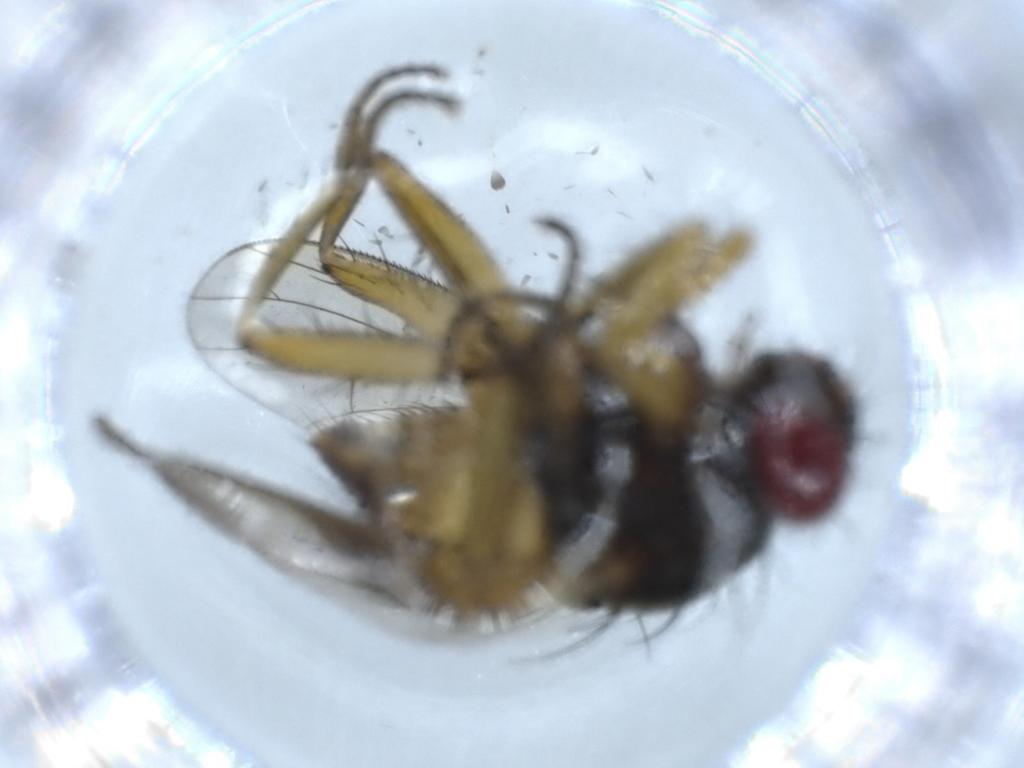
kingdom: Animalia
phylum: Arthropoda
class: Insecta
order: Diptera
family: Muscidae
